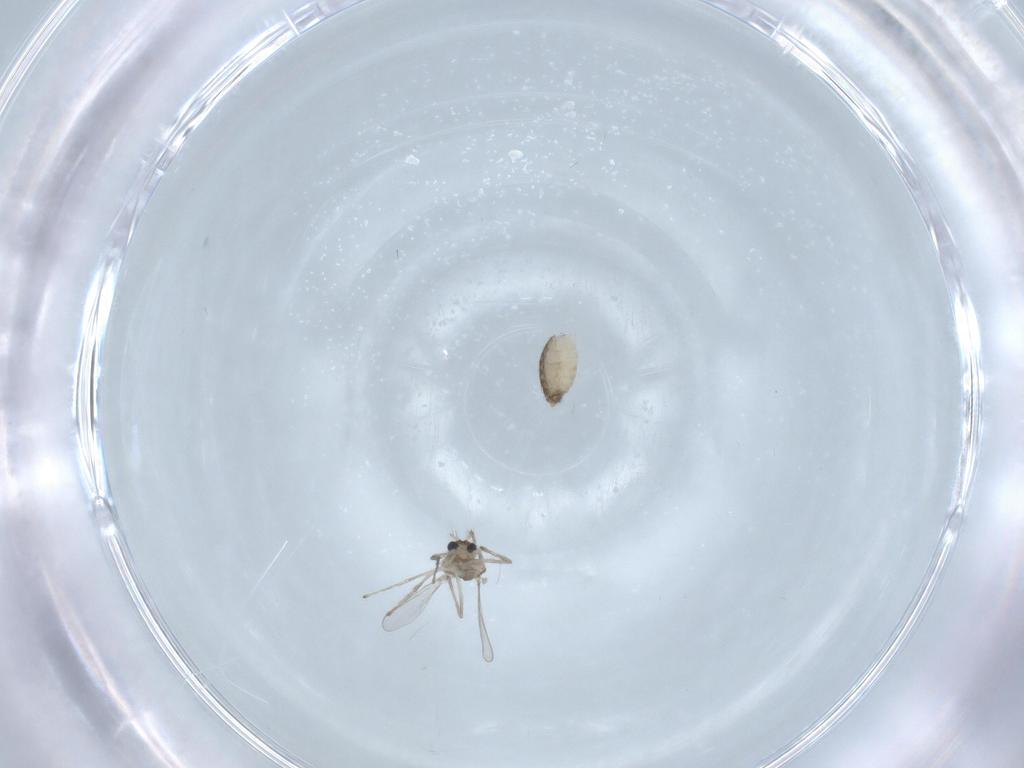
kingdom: Animalia
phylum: Arthropoda
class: Insecta
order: Diptera
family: Chironomidae
